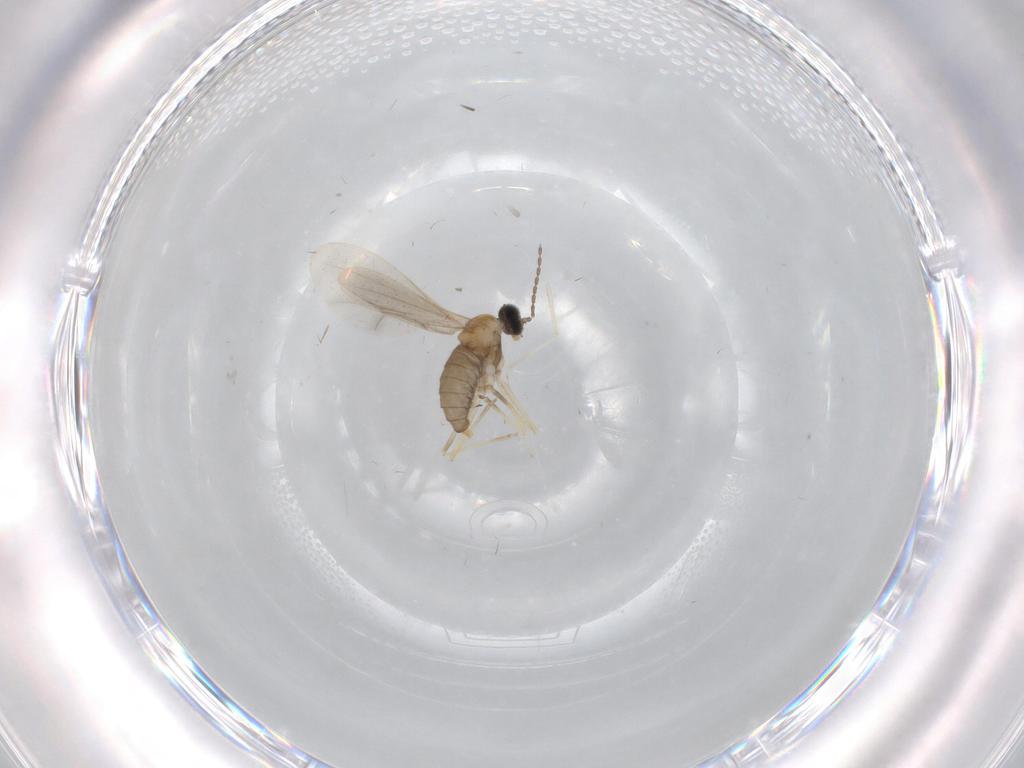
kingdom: Animalia
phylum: Arthropoda
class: Insecta
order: Diptera
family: Cecidomyiidae
